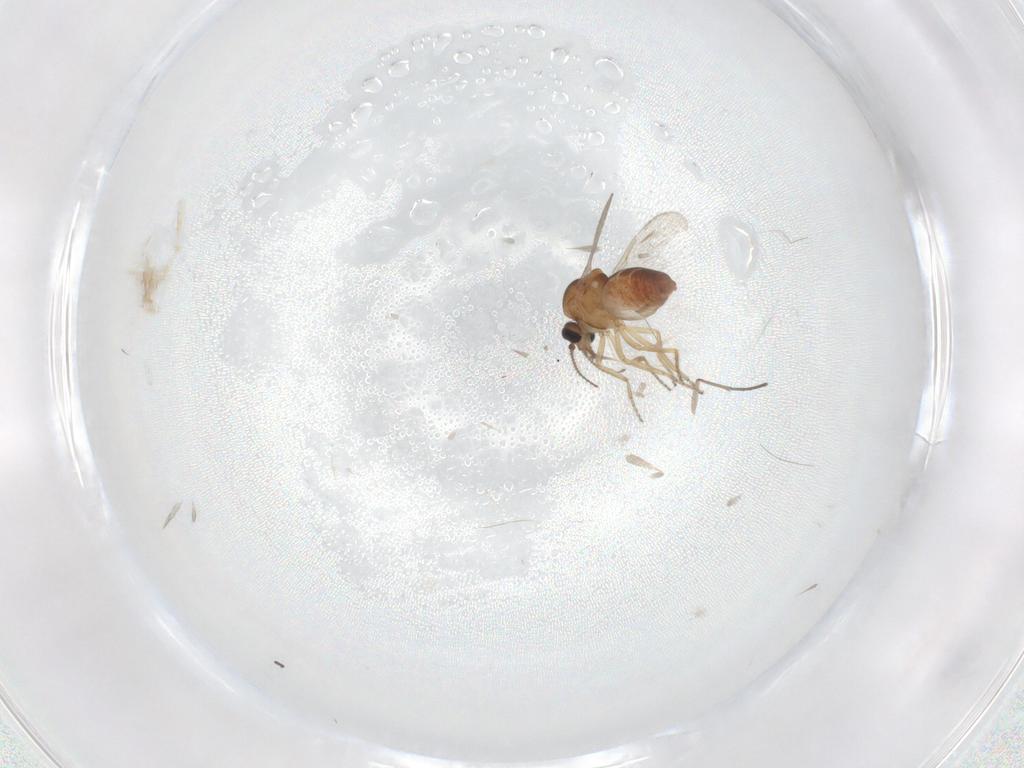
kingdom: Animalia
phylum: Arthropoda
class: Insecta
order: Diptera
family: Ceratopogonidae
